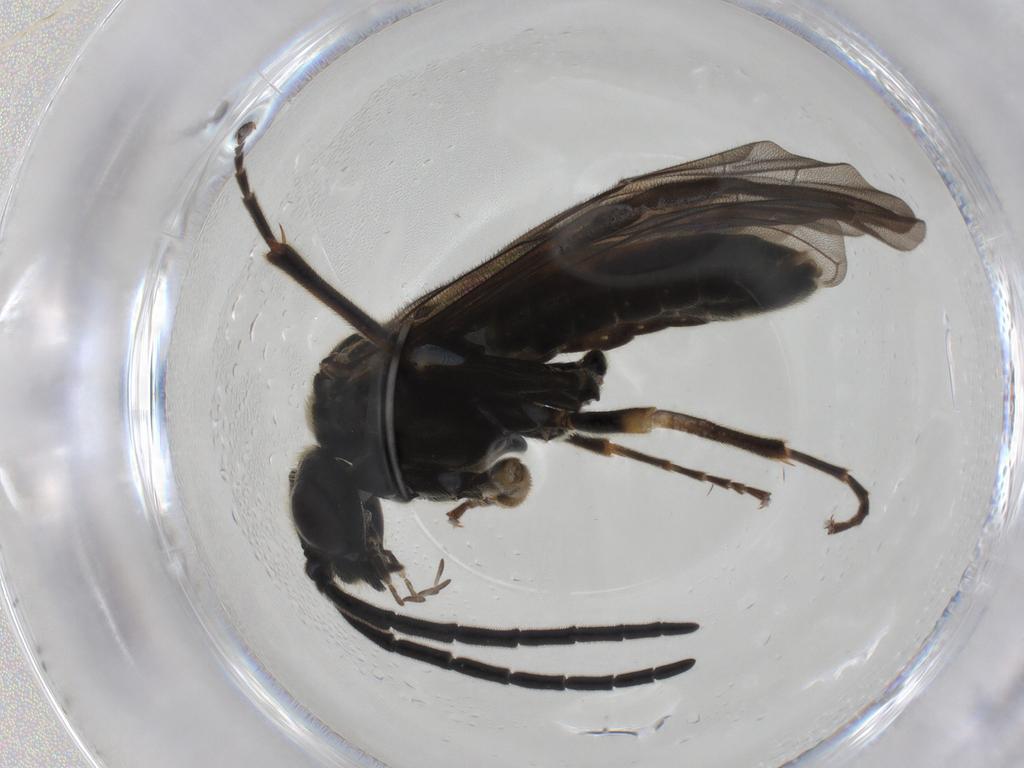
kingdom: Animalia
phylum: Arthropoda
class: Insecta
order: Hymenoptera
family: Tenthredinidae
